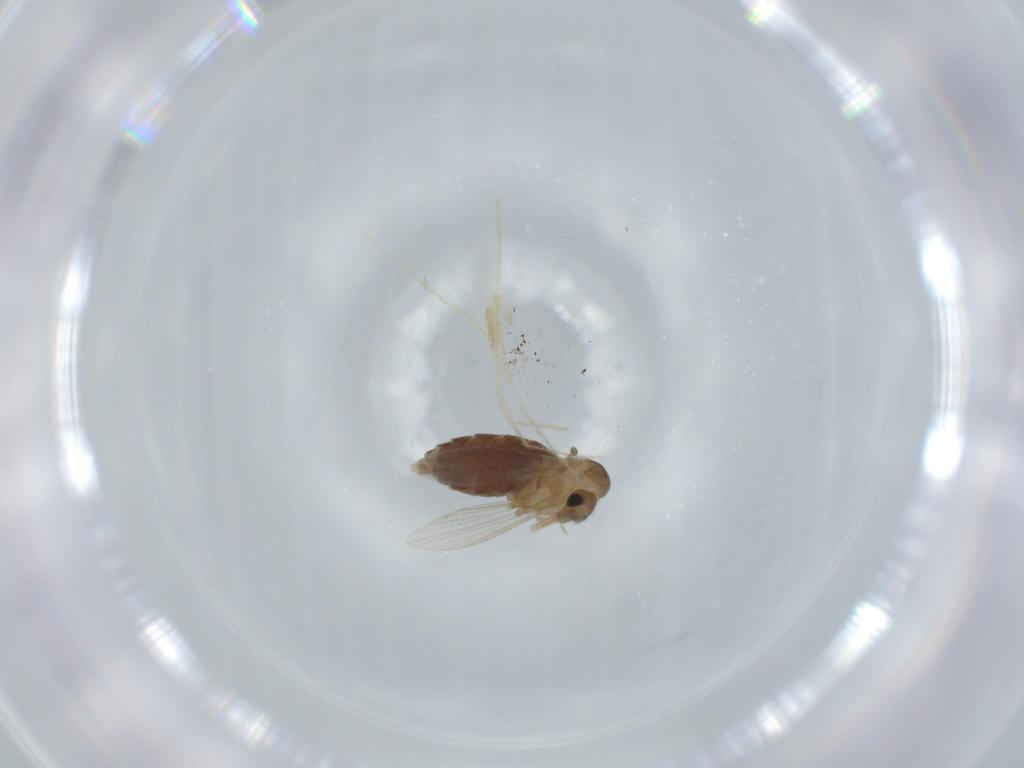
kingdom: Animalia
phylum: Arthropoda
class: Insecta
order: Diptera
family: Psychodidae
